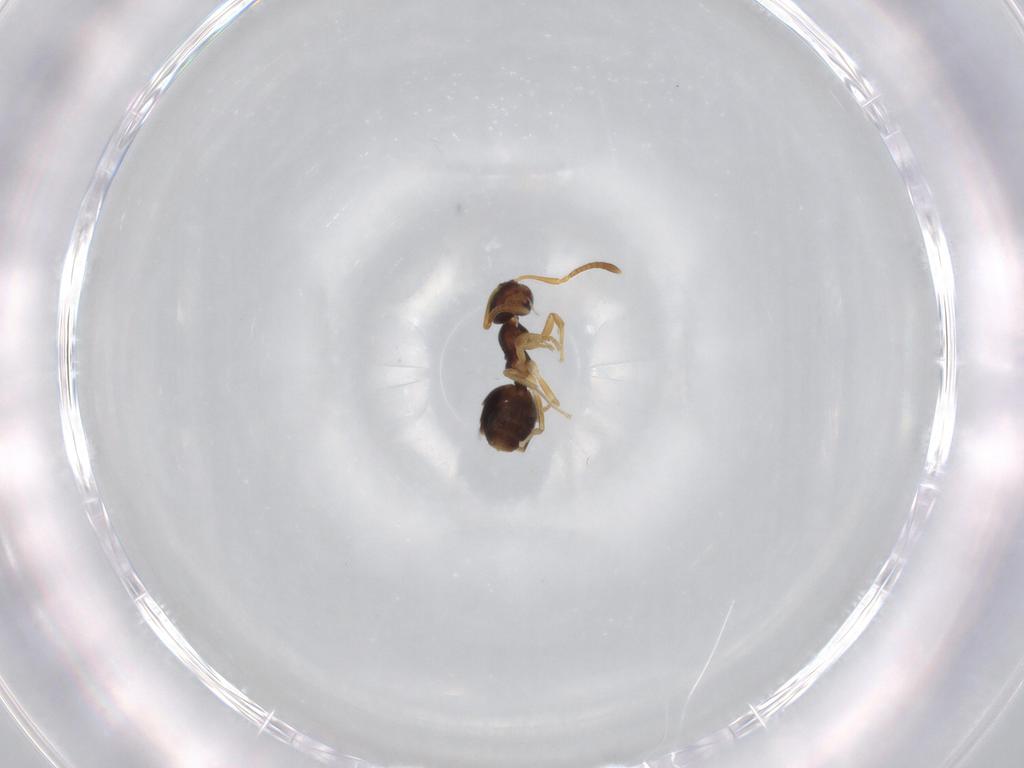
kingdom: Animalia
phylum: Arthropoda
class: Insecta
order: Hymenoptera
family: Formicidae
